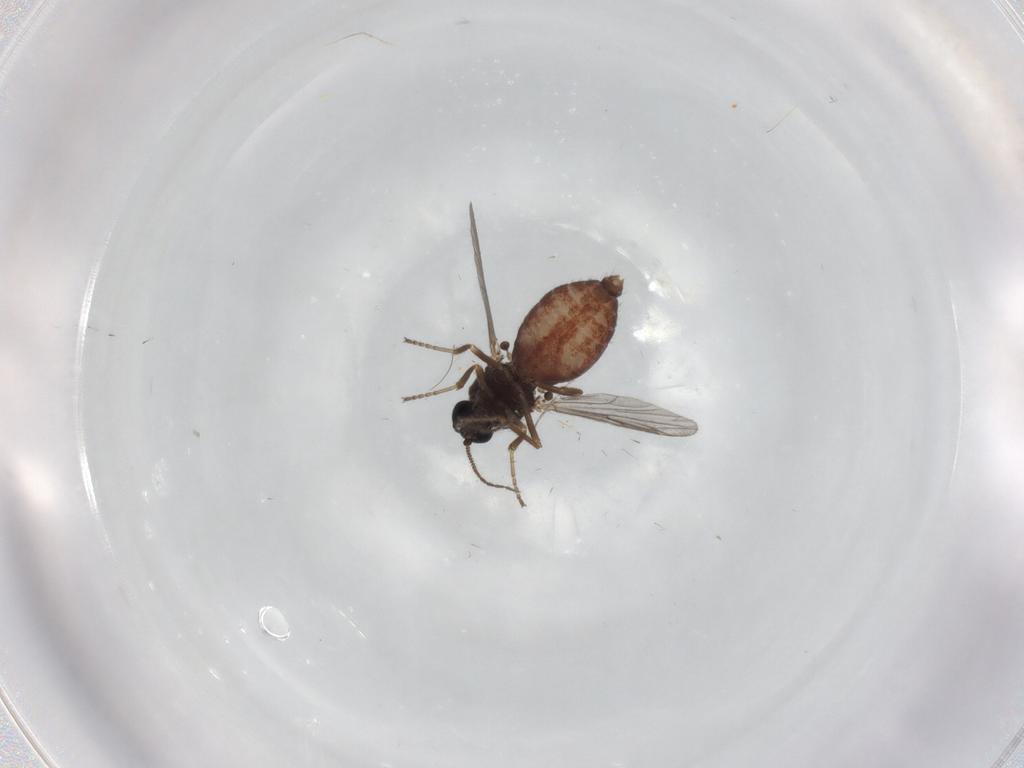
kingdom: Animalia
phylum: Arthropoda
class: Insecta
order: Diptera
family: Ceratopogonidae
